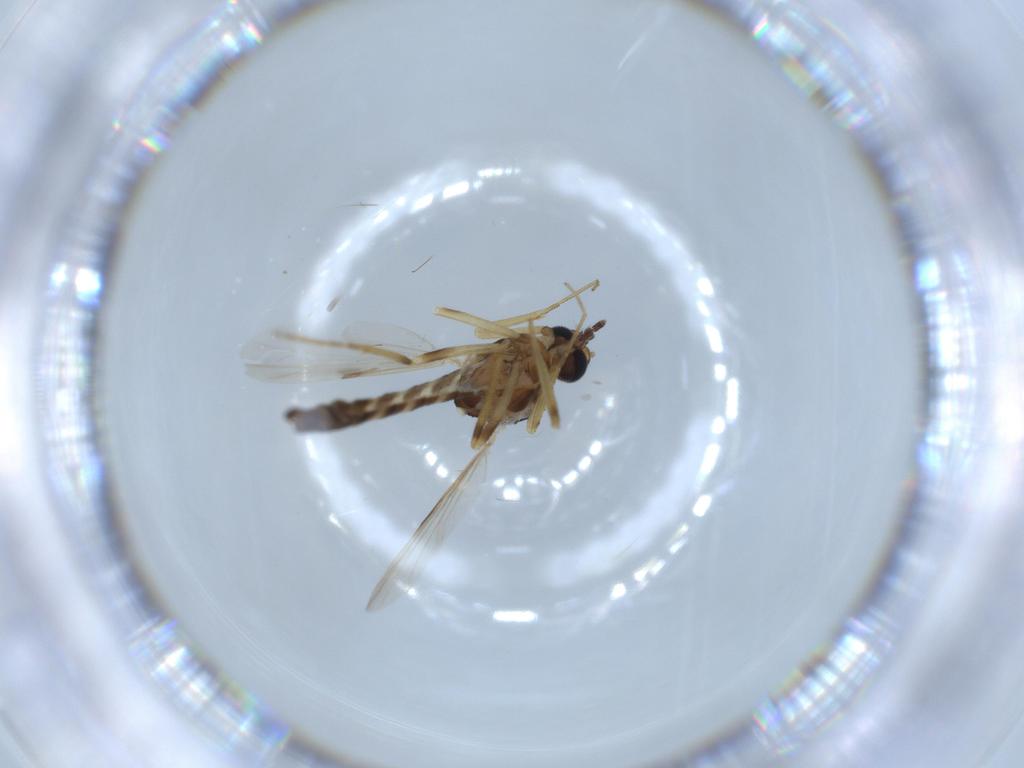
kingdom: Animalia
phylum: Arthropoda
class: Insecta
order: Diptera
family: Ceratopogonidae
